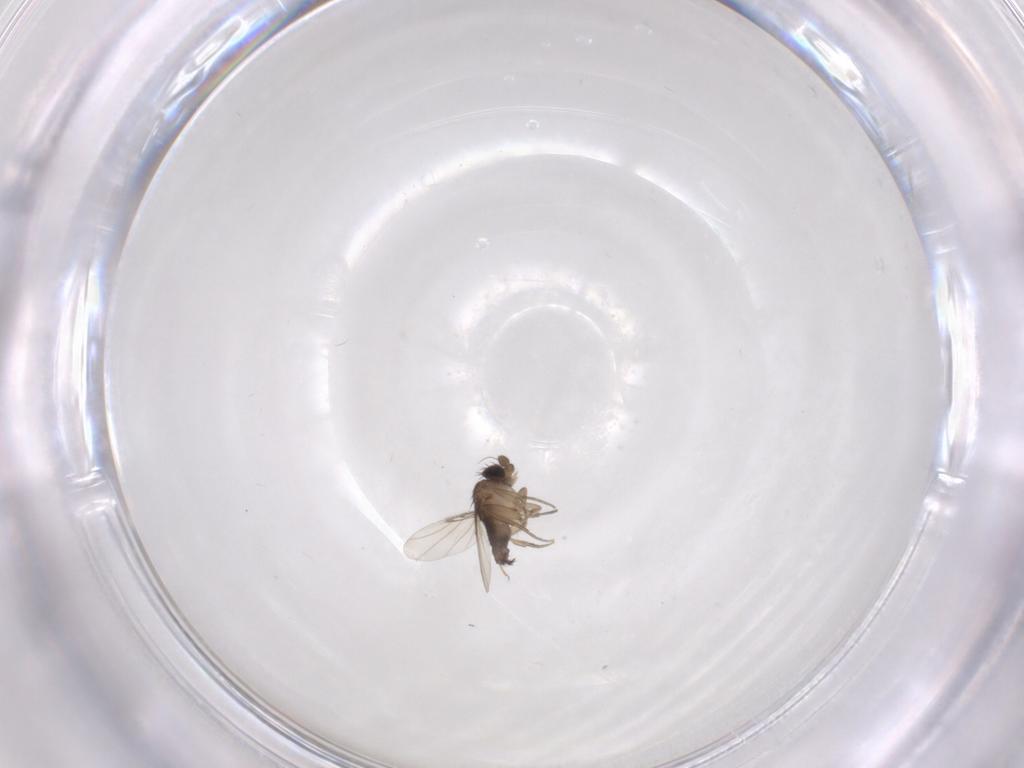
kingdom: Animalia
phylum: Arthropoda
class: Insecta
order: Diptera
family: Phoridae
